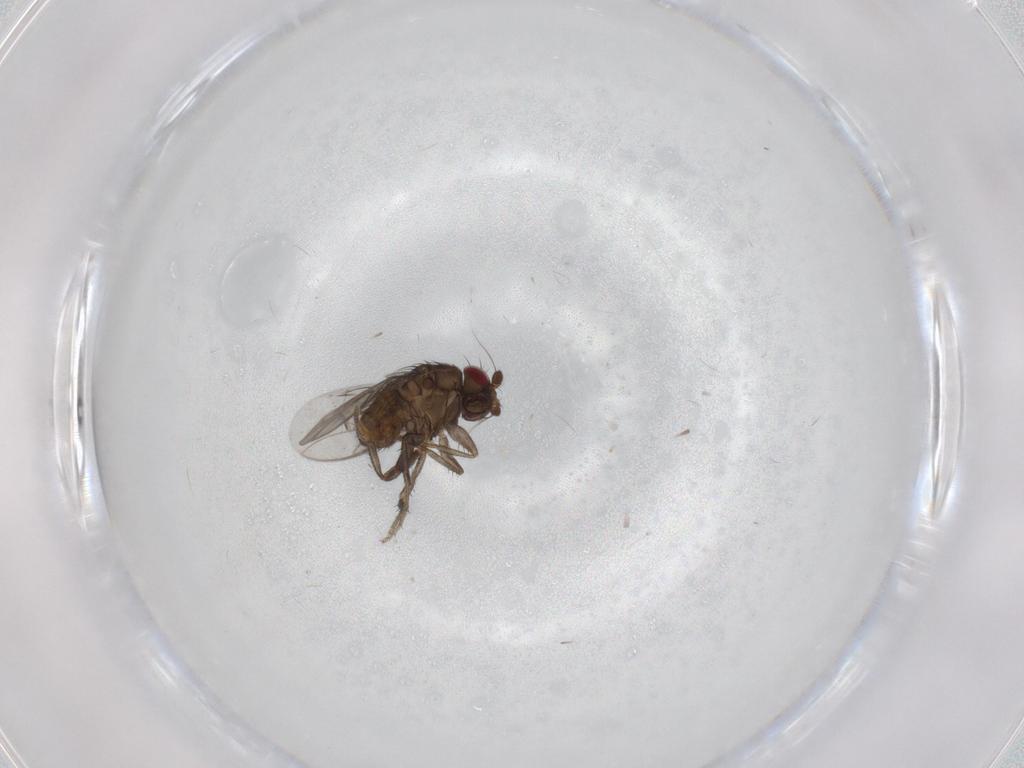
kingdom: Animalia
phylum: Arthropoda
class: Insecta
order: Diptera
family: Sphaeroceridae
